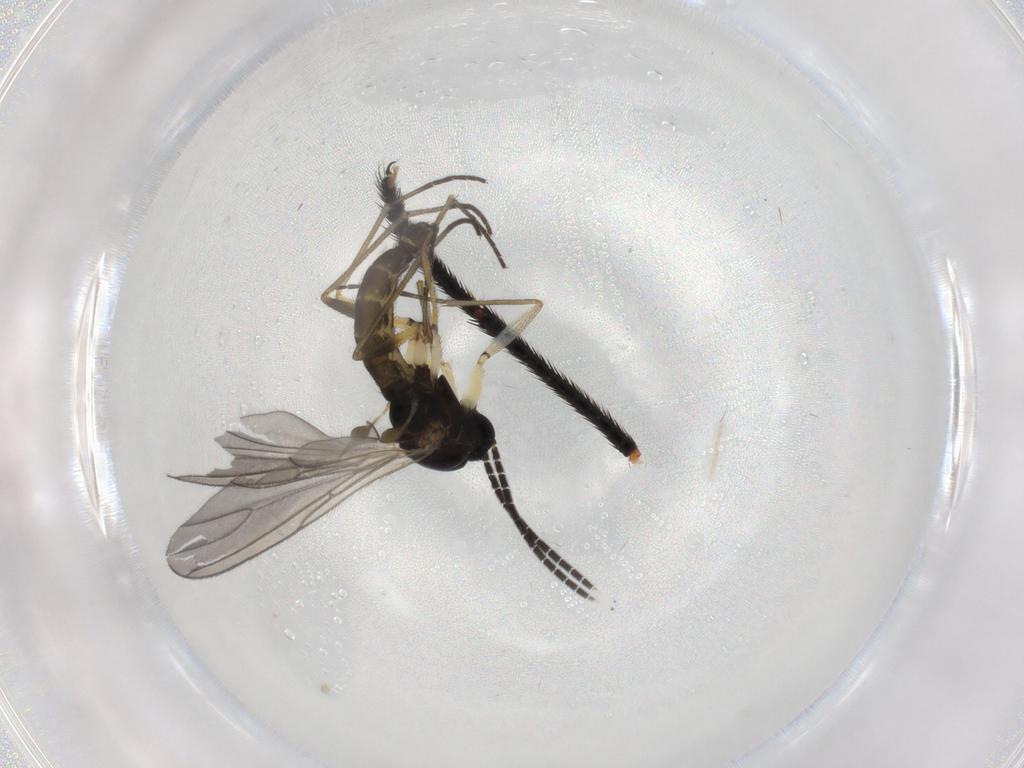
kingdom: Animalia
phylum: Arthropoda
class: Insecta
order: Diptera
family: Sciaridae
